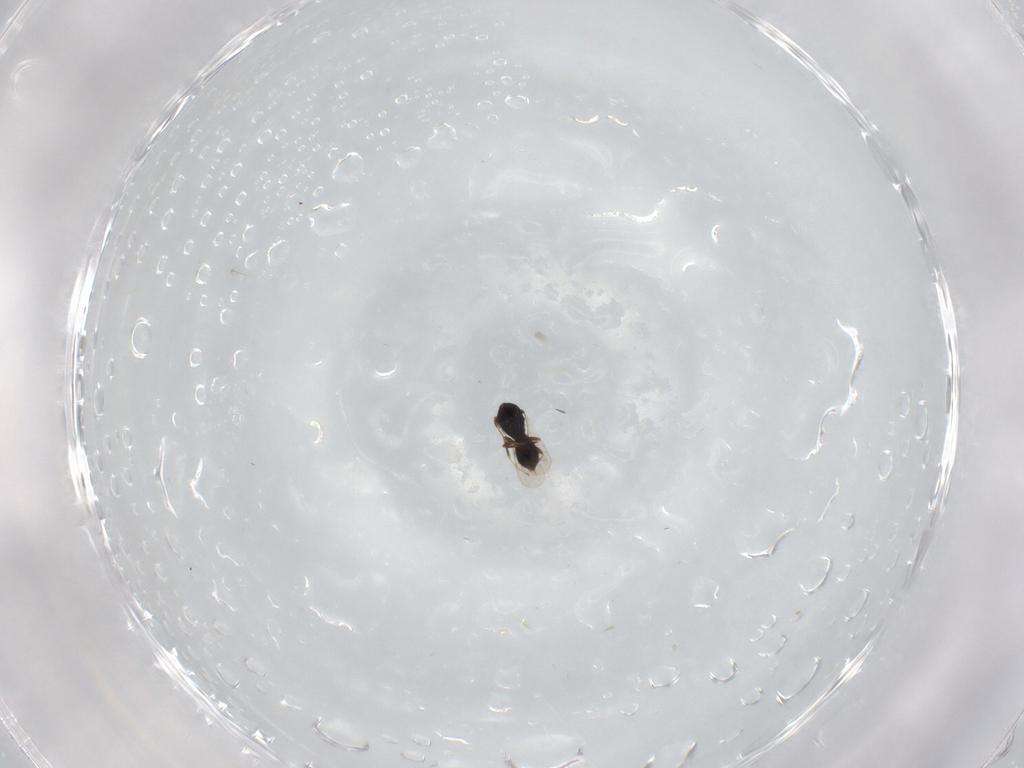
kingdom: Animalia
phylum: Arthropoda
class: Insecta
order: Hymenoptera
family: Scelionidae
